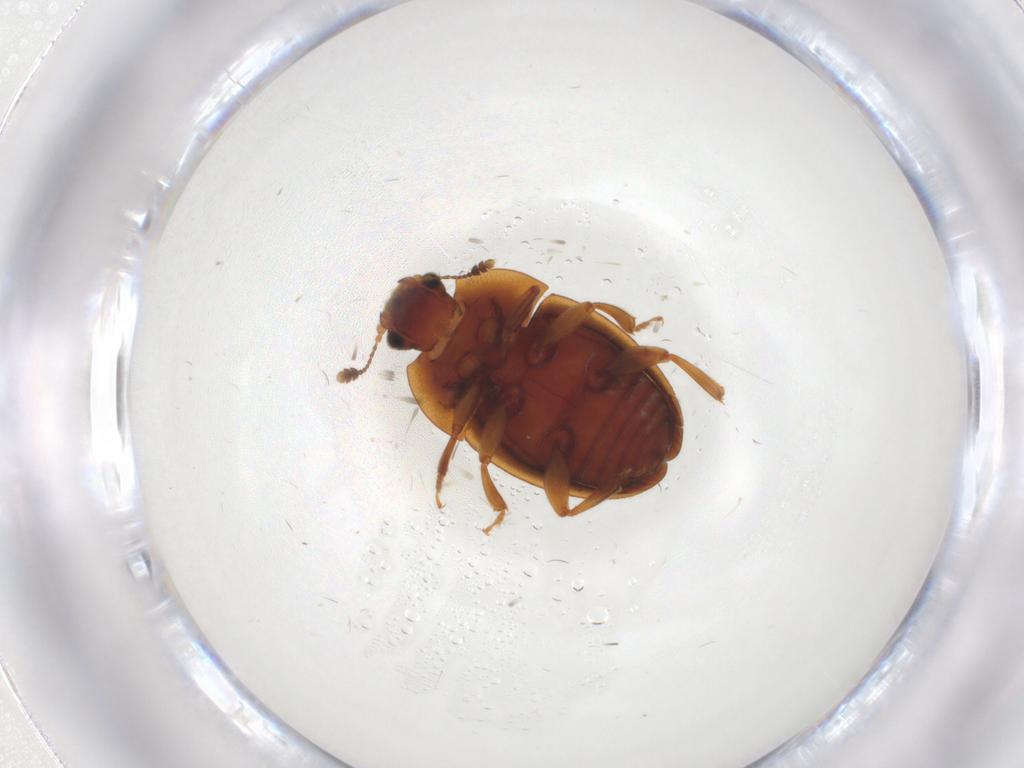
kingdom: Animalia
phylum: Arthropoda
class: Insecta
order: Coleoptera
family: Nitidulidae
